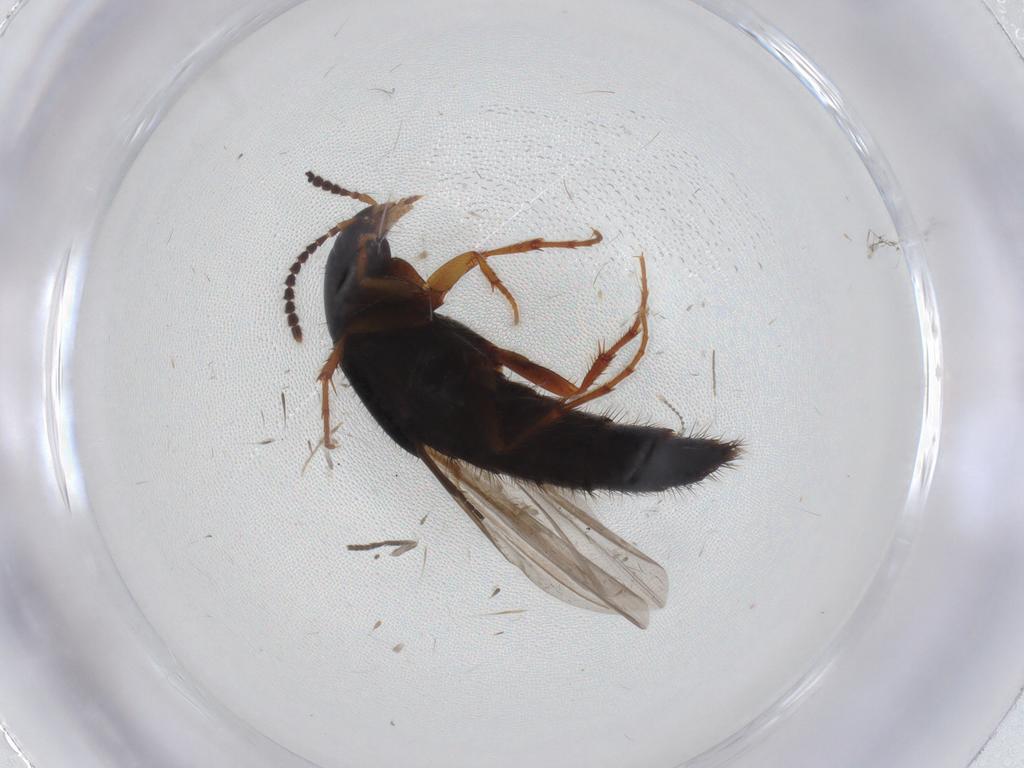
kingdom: Animalia
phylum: Arthropoda
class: Insecta
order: Coleoptera
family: Staphylinidae
